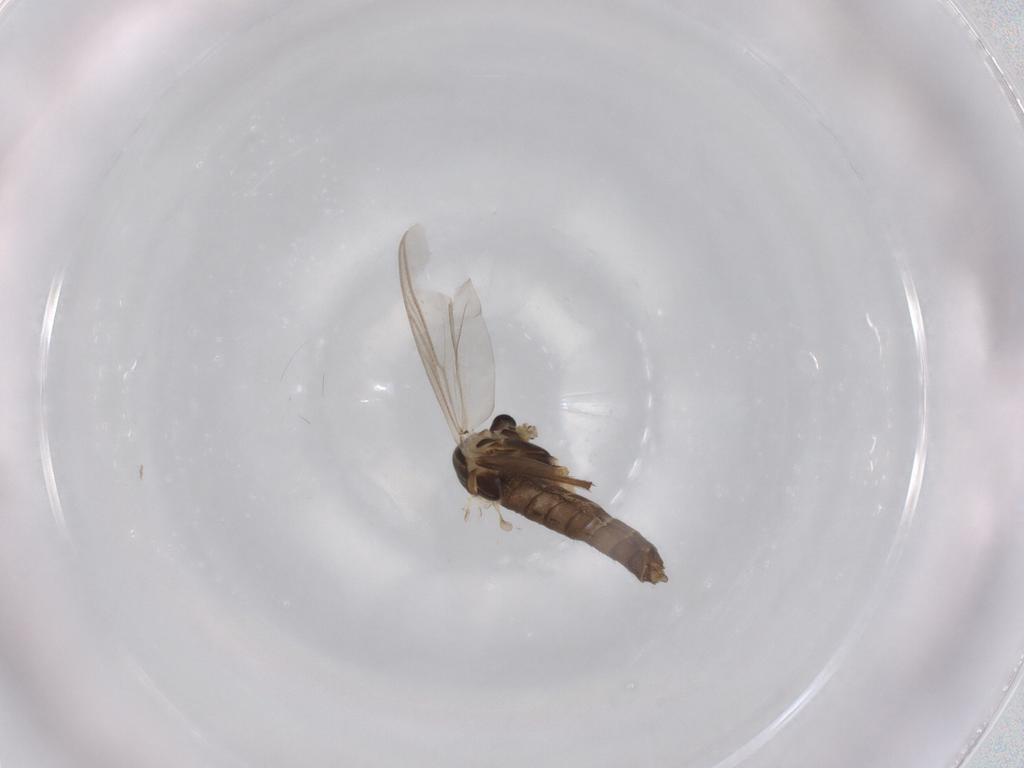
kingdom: Animalia
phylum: Arthropoda
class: Insecta
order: Diptera
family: Chironomidae
